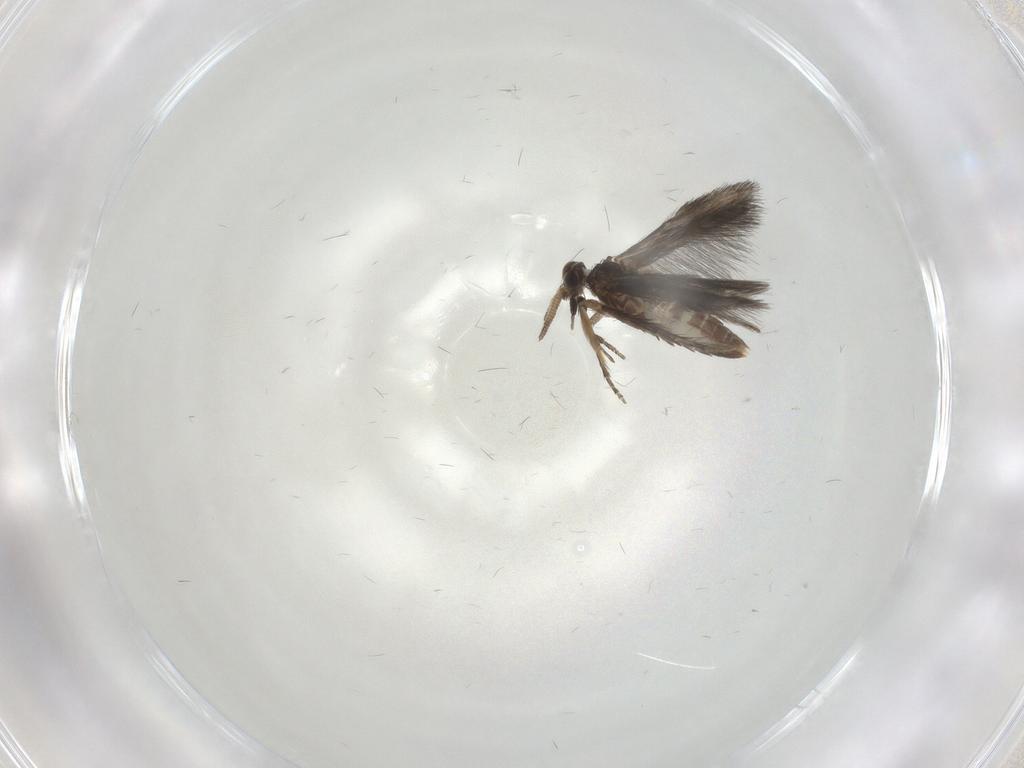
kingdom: Animalia
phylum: Arthropoda
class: Insecta
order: Trichoptera
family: Hydroptilidae
